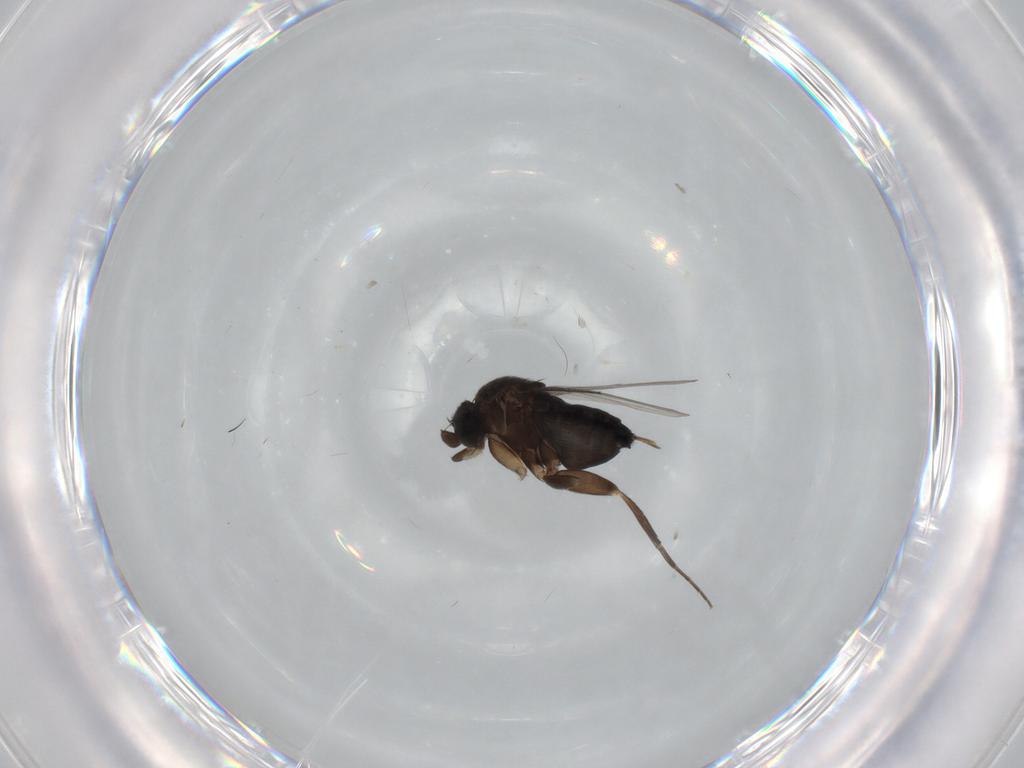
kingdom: Animalia
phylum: Arthropoda
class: Insecta
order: Diptera
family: Phoridae
